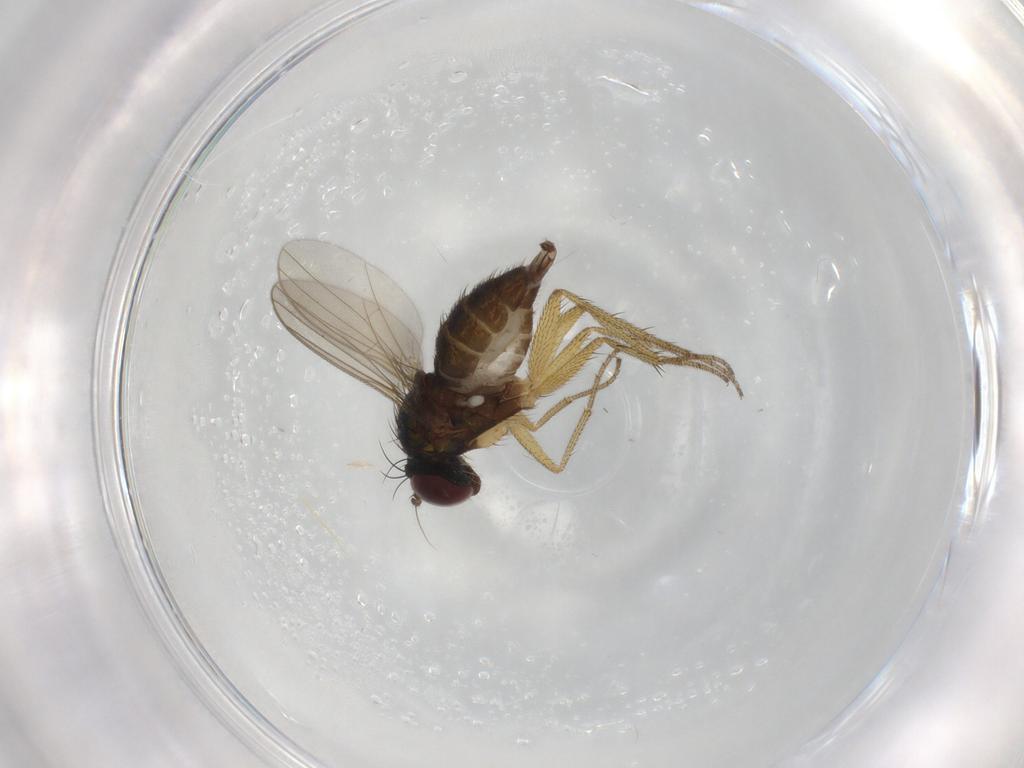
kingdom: Animalia
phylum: Arthropoda
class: Insecta
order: Diptera
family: Dolichopodidae
